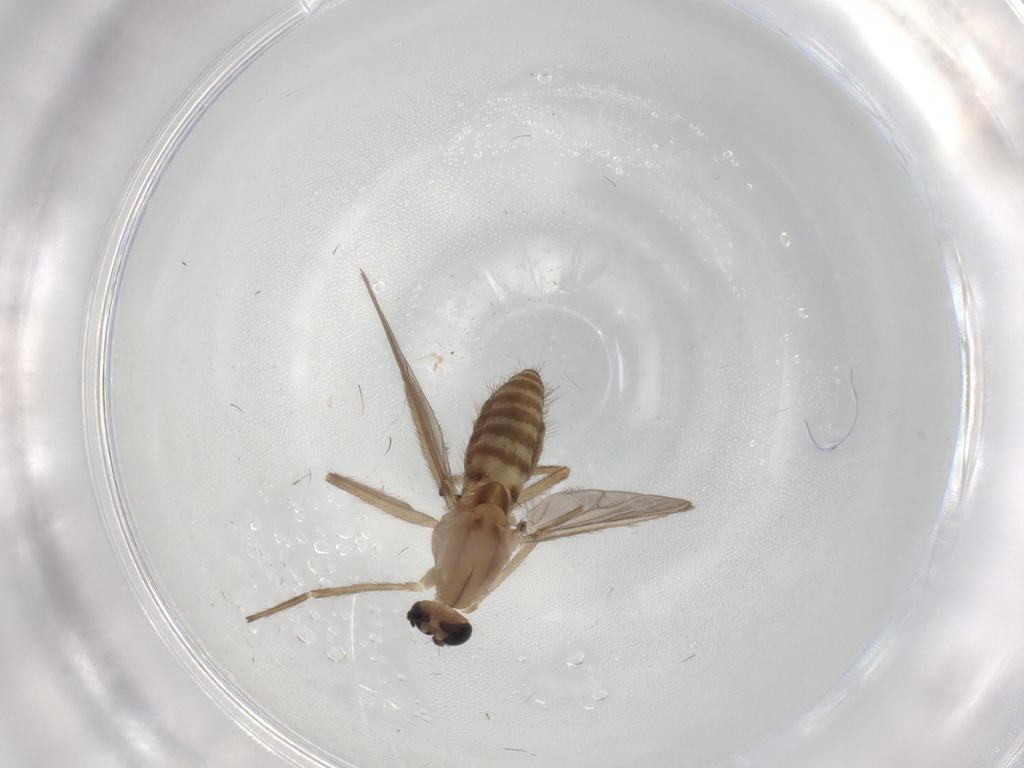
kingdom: Animalia
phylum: Arthropoda
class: Insecta
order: Diptera
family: Chironomidae
